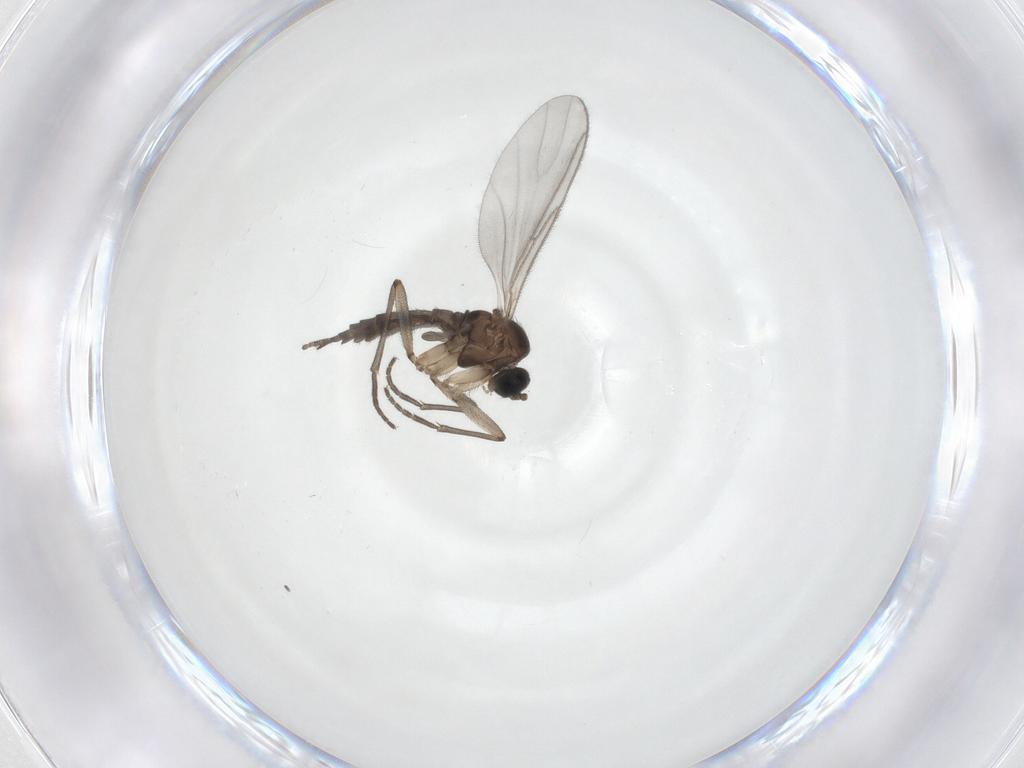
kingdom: Animalia
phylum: Arthropoda
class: Insecta
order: Diptera
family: Sciaridae
